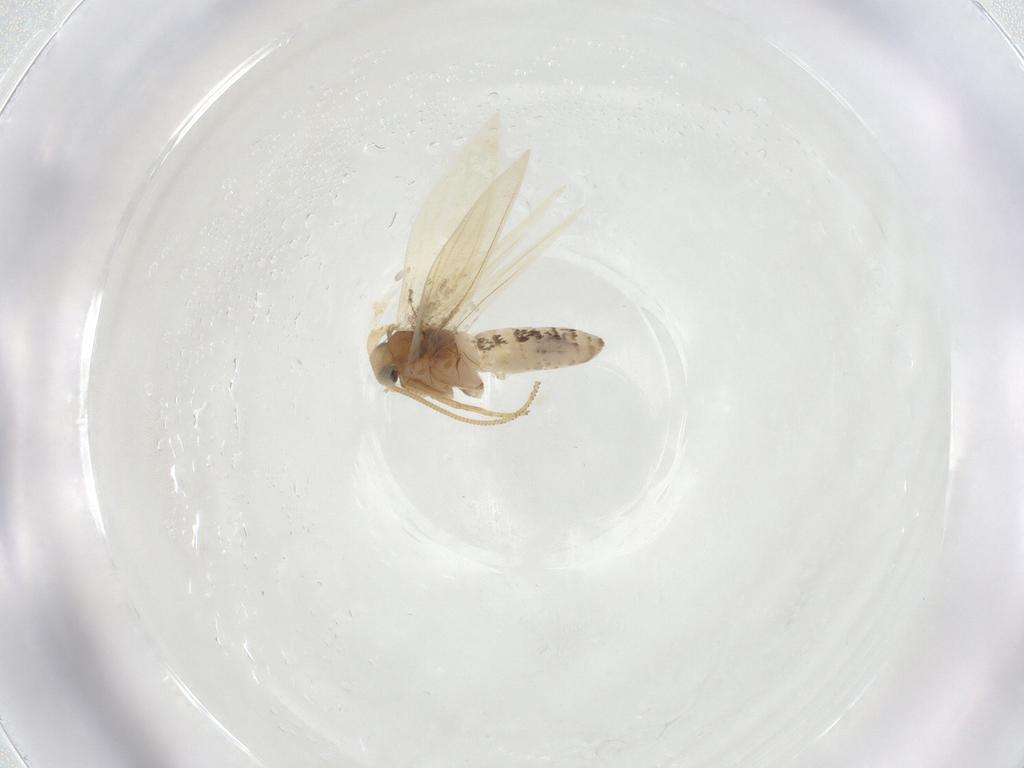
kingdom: Animalia
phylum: Arthropoda
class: Insecta
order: Lepidoptera
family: Nepticulidae
